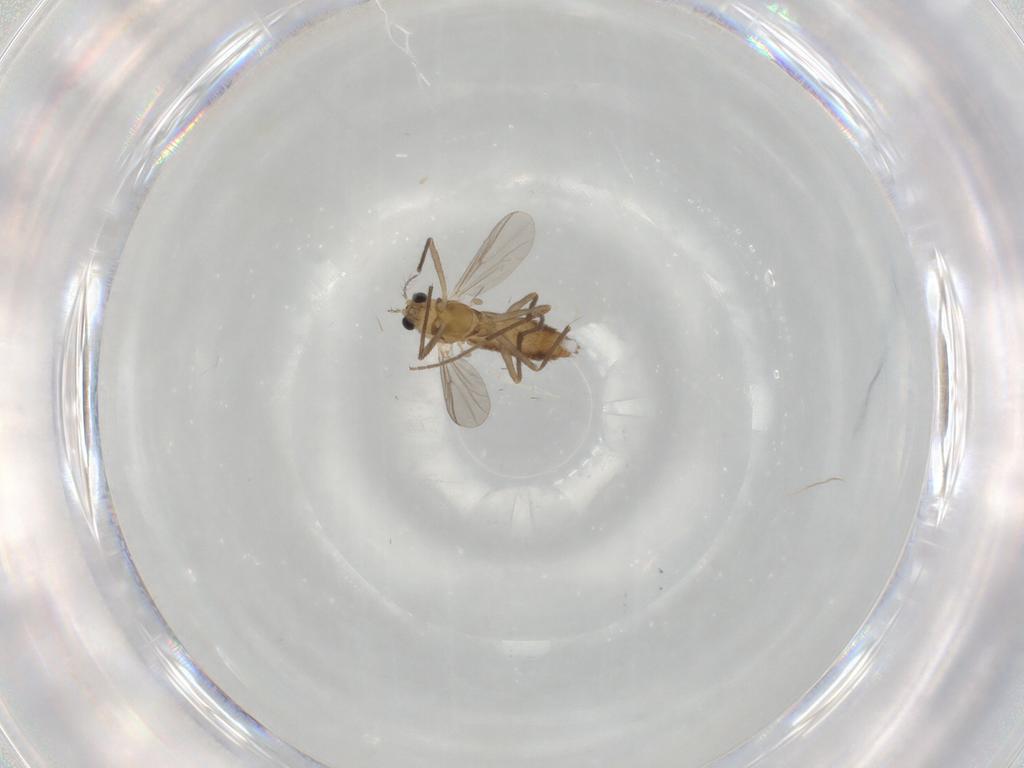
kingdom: Animalia
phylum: Arthropoda
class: Insecta
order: Diptera
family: Chironomidae
